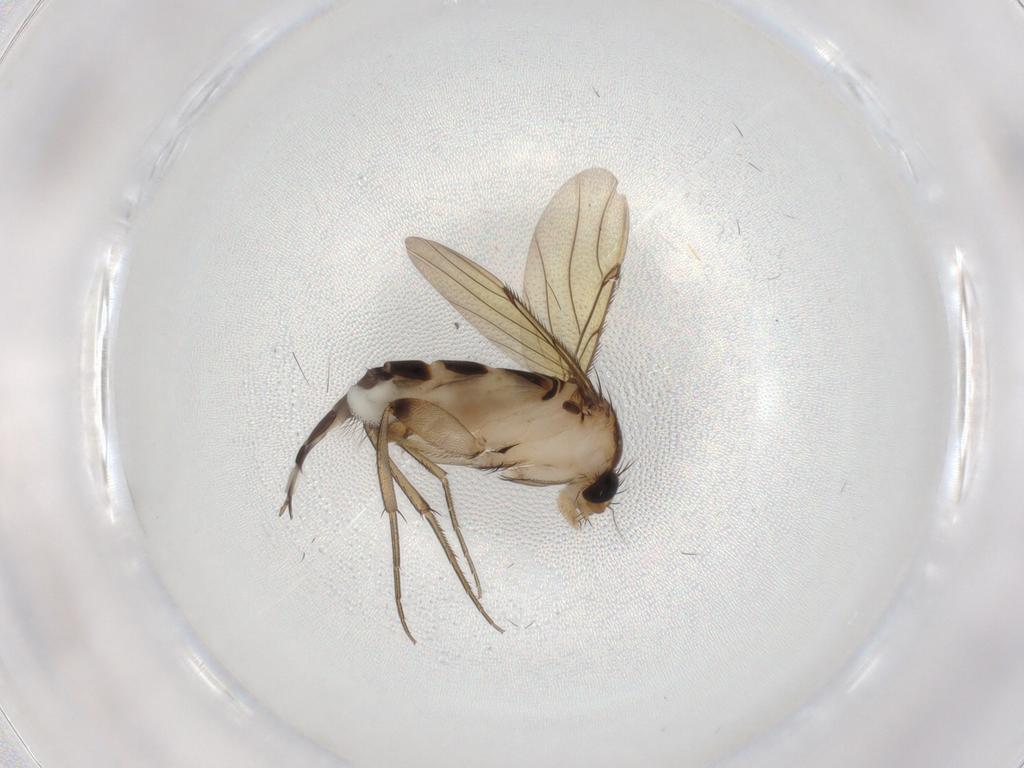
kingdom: Animalia
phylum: Arthropoda
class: Insecta
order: Diptera
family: Phoridae
